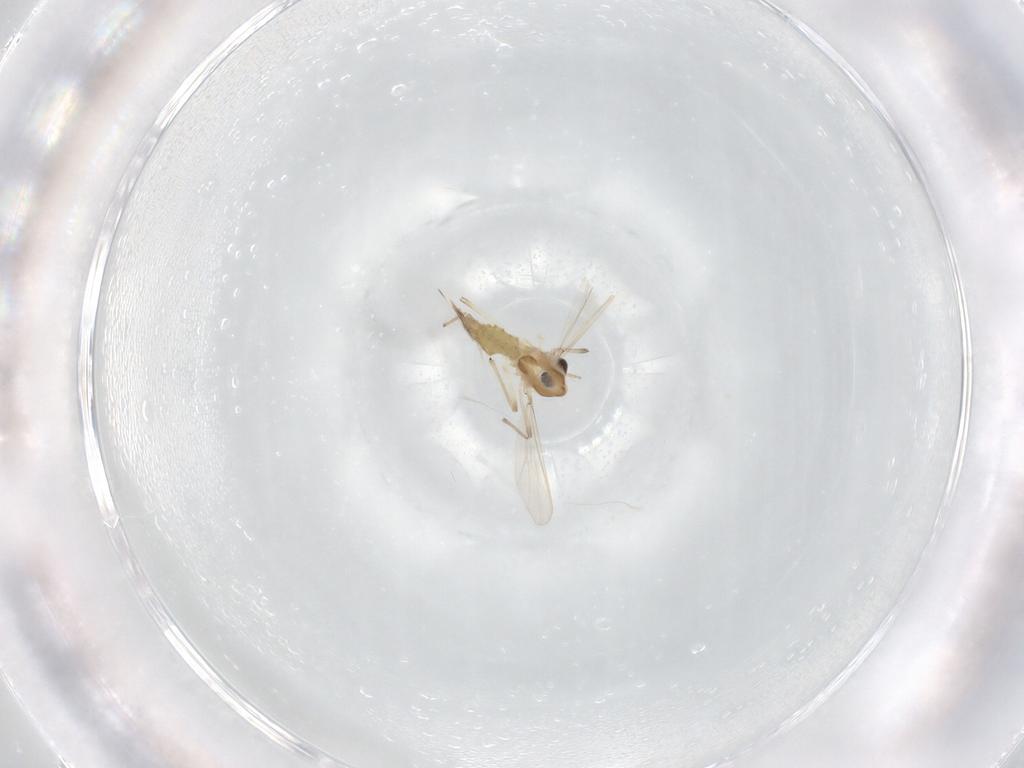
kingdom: Animalia
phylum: Arthropoda
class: Insecta
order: Diptera
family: Chironomidae
